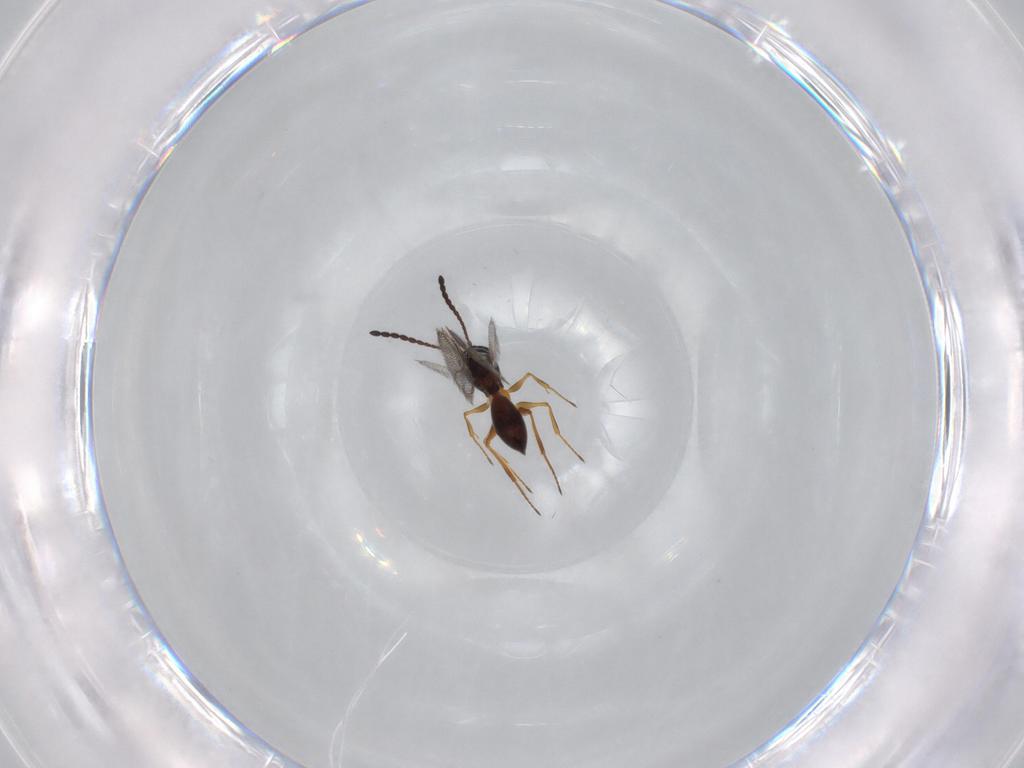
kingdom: Animalia
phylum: Arthropoda
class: Insecta
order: Hymenoptera
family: Figitidae
